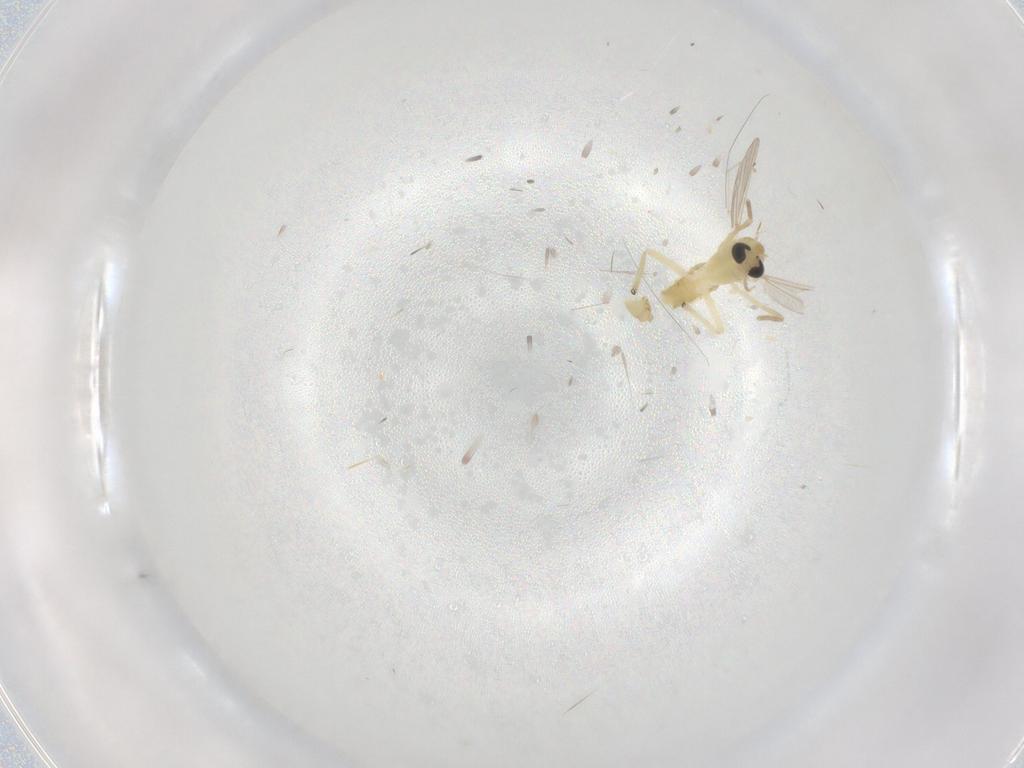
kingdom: Animalia
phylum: Arthropoda
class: Insecta
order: Diptera
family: Chironomidae
